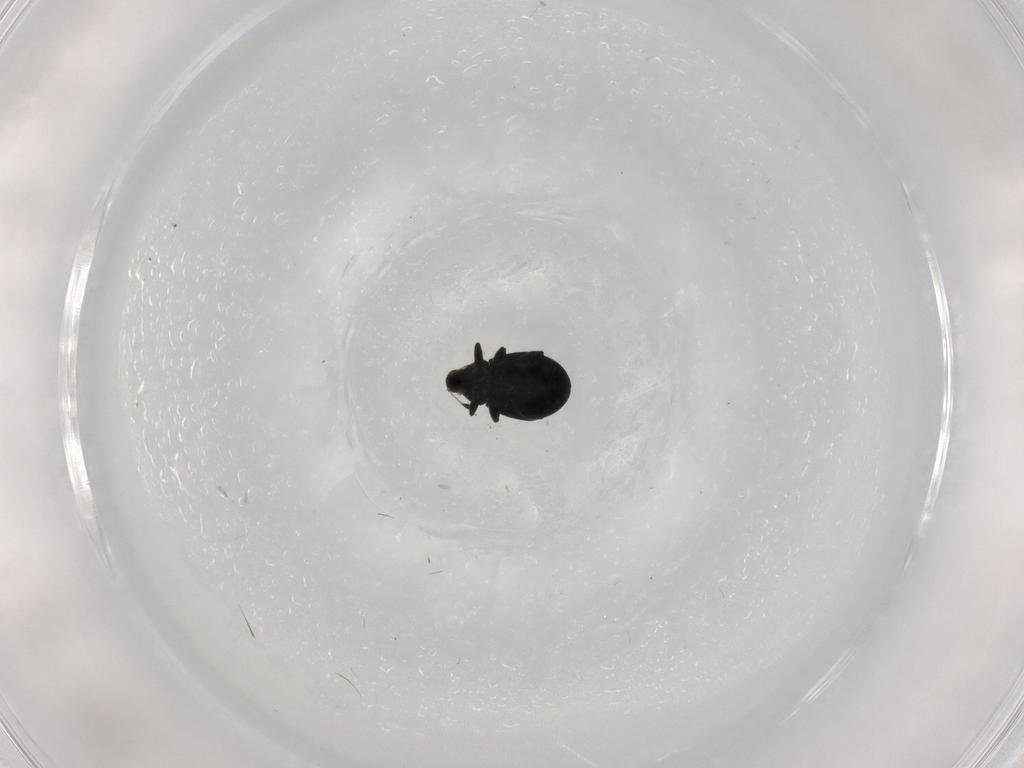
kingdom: Animalia
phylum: Arthropoda
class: Insecta
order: Coleoptera
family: Curculionidae
